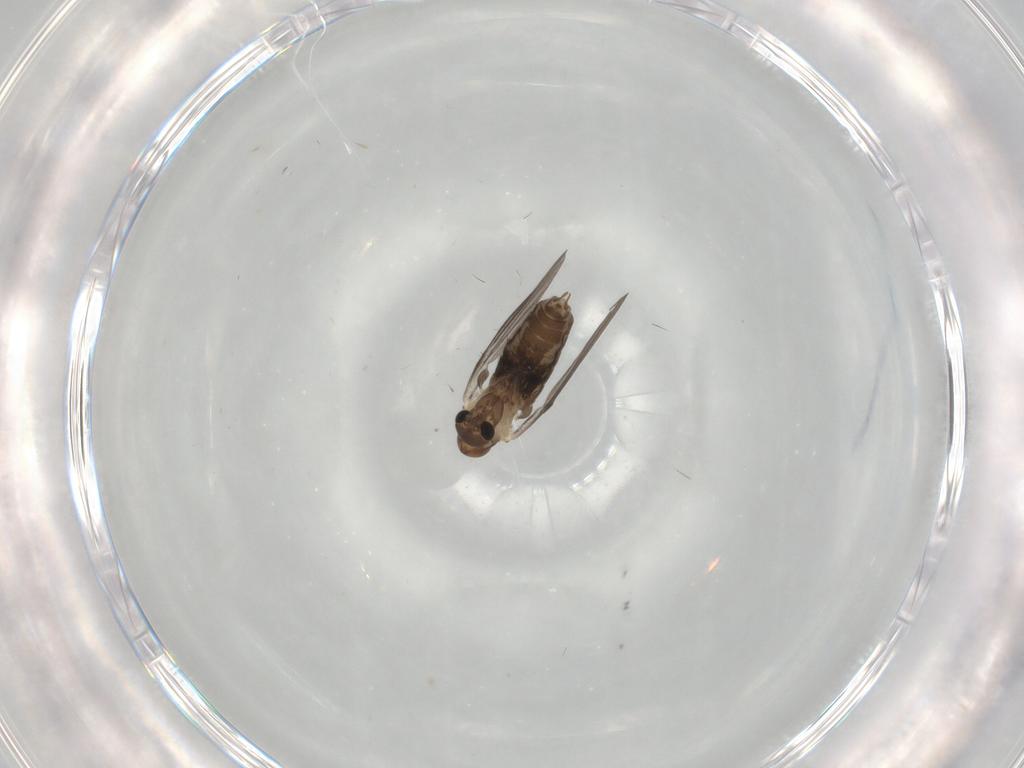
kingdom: Animalia
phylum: Arthropoda
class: Insecta
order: Diptera
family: Psychodidae
